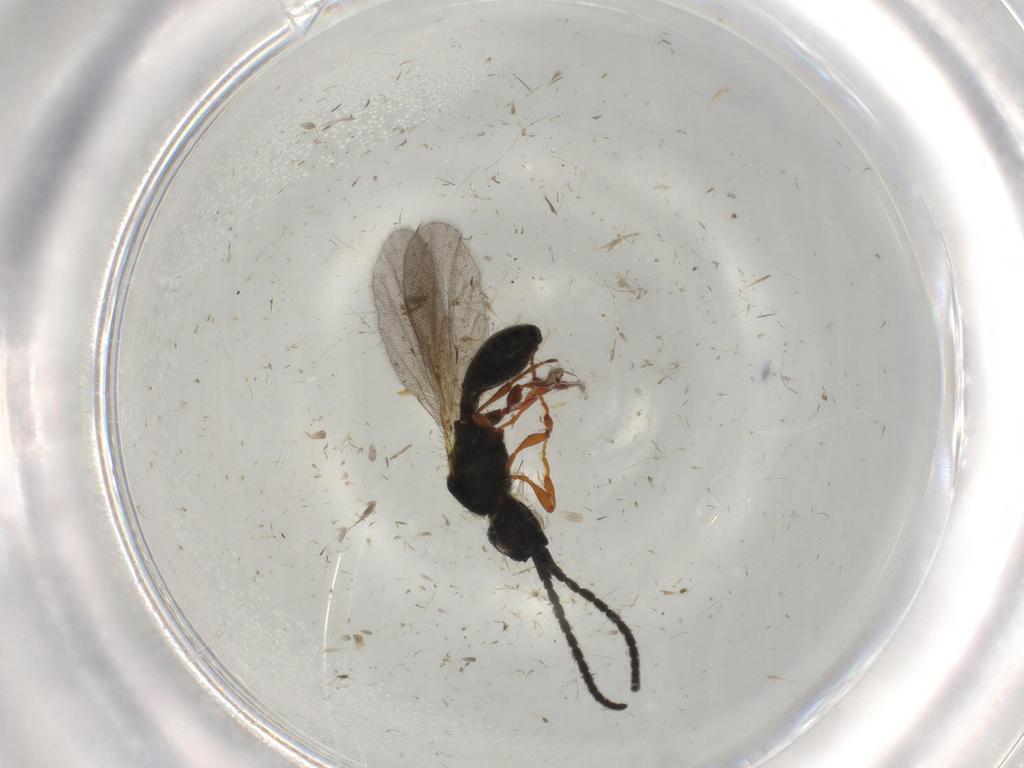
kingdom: Animalia
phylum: Arthropoda
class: Insecta
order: Hymenoptera
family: Diapriidae
